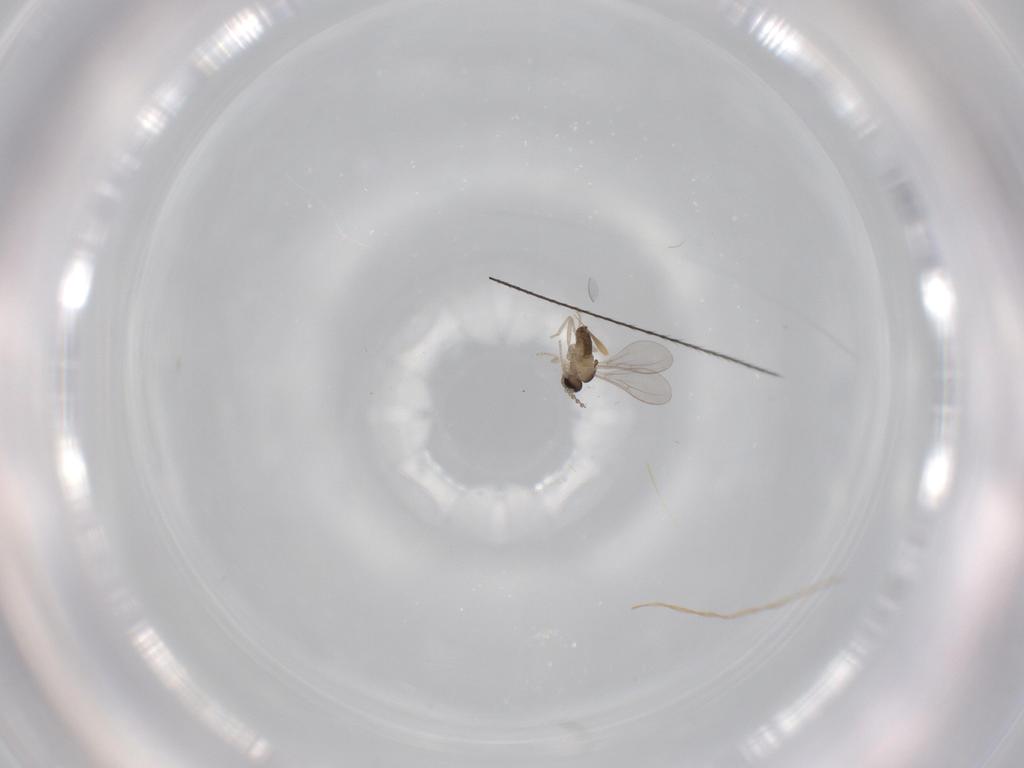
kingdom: Animalia
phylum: Arthropoda
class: Insecta
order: Diptera
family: Cecidomyiidae
